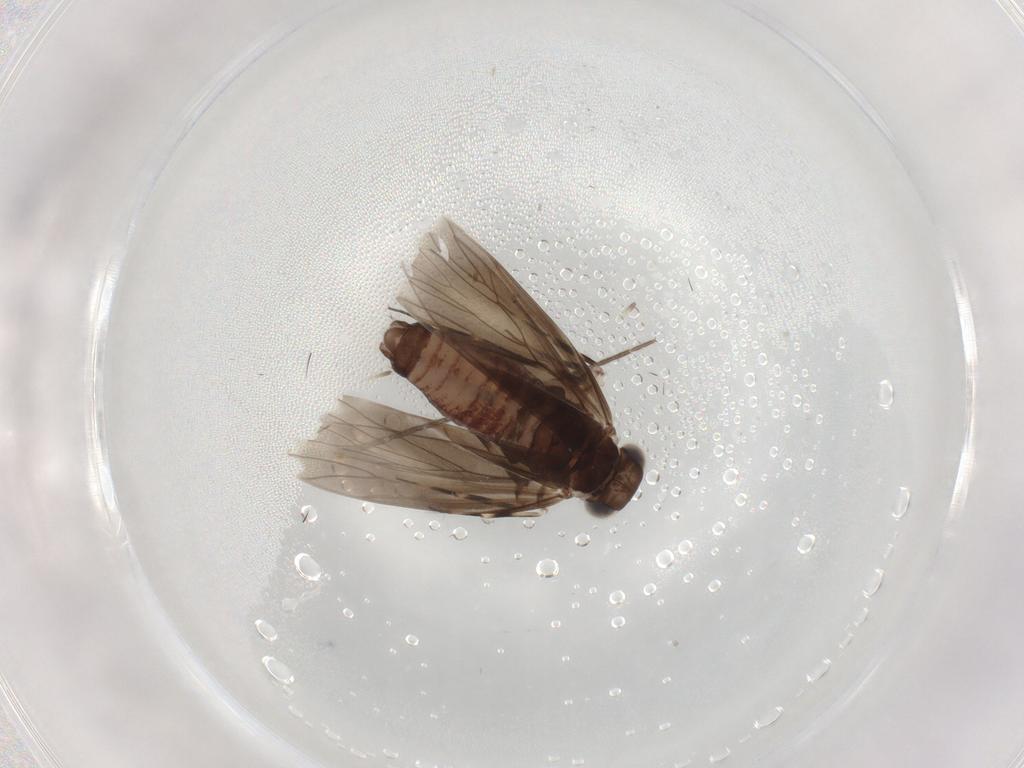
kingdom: Animalia
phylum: Arthropoda
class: Insecta
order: Psocodea
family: Amphientomidae
